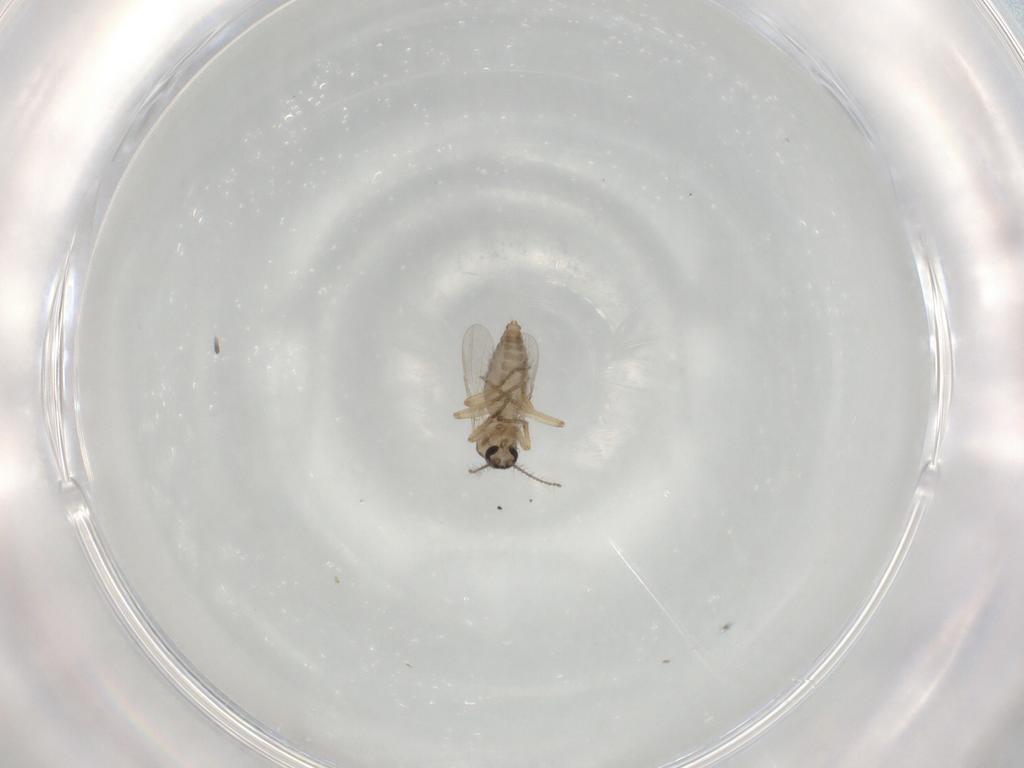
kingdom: Animalia
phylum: Arthropoda
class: Insecta
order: Diptera
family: Ceratopogonidae
